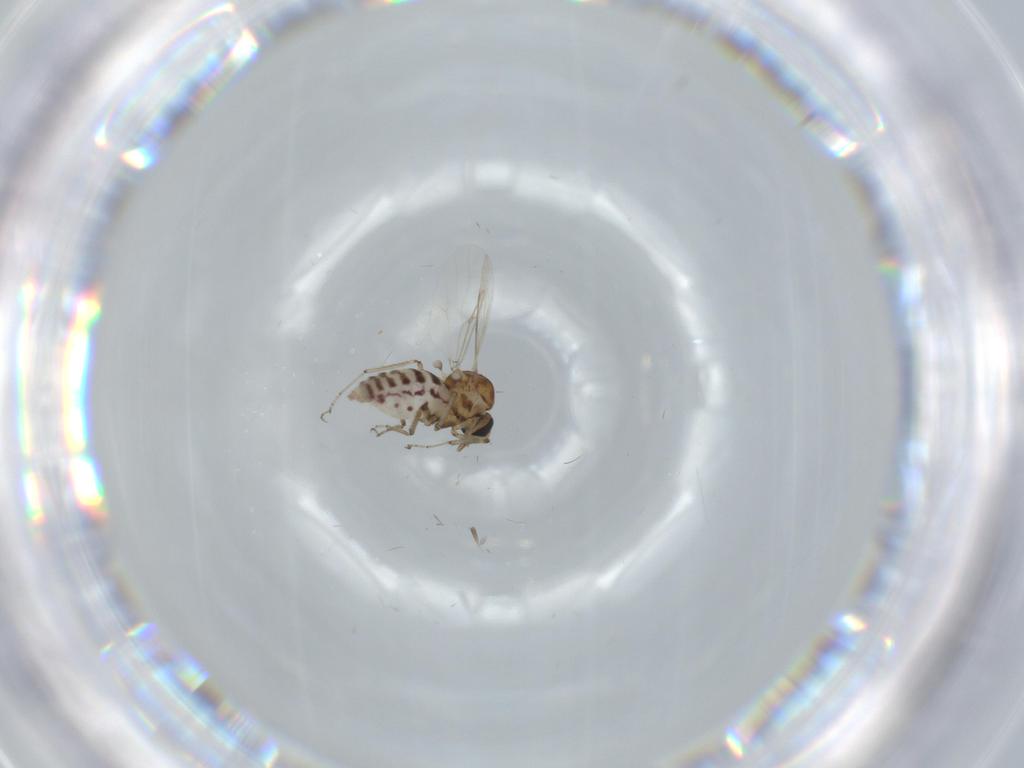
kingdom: Animalia
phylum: Arthropoda
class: Insecta
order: Diptera
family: Ceratopogonidae
